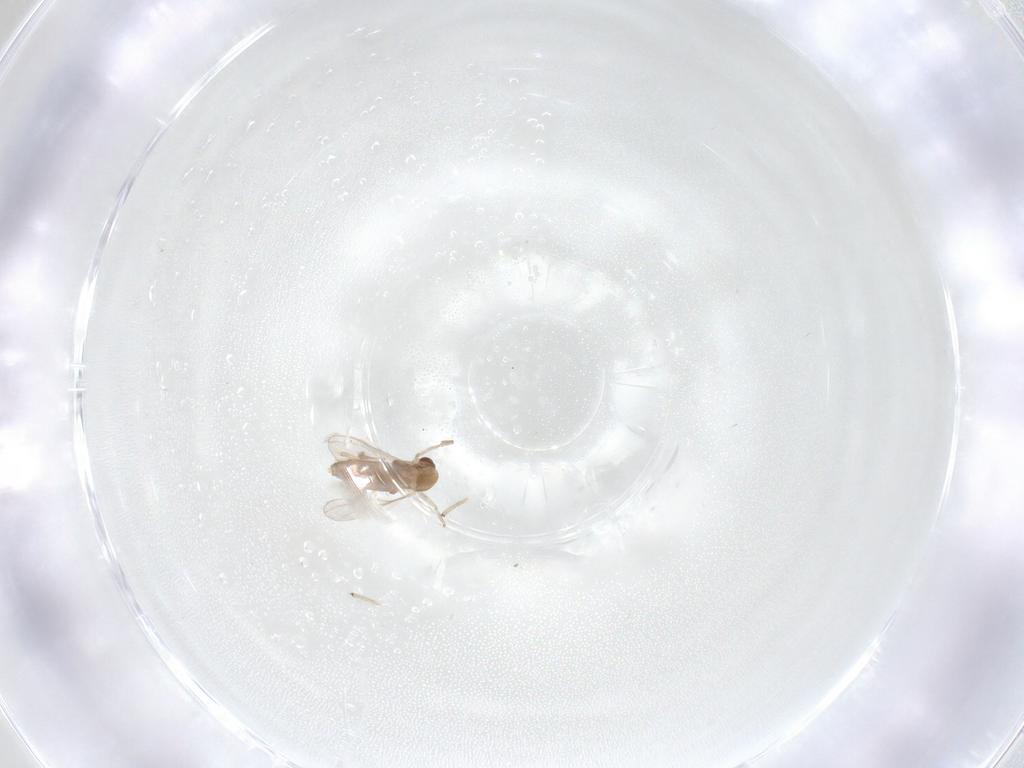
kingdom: Animalia
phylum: Arthropoda
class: Insecta
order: Diptera
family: Chironomidae
